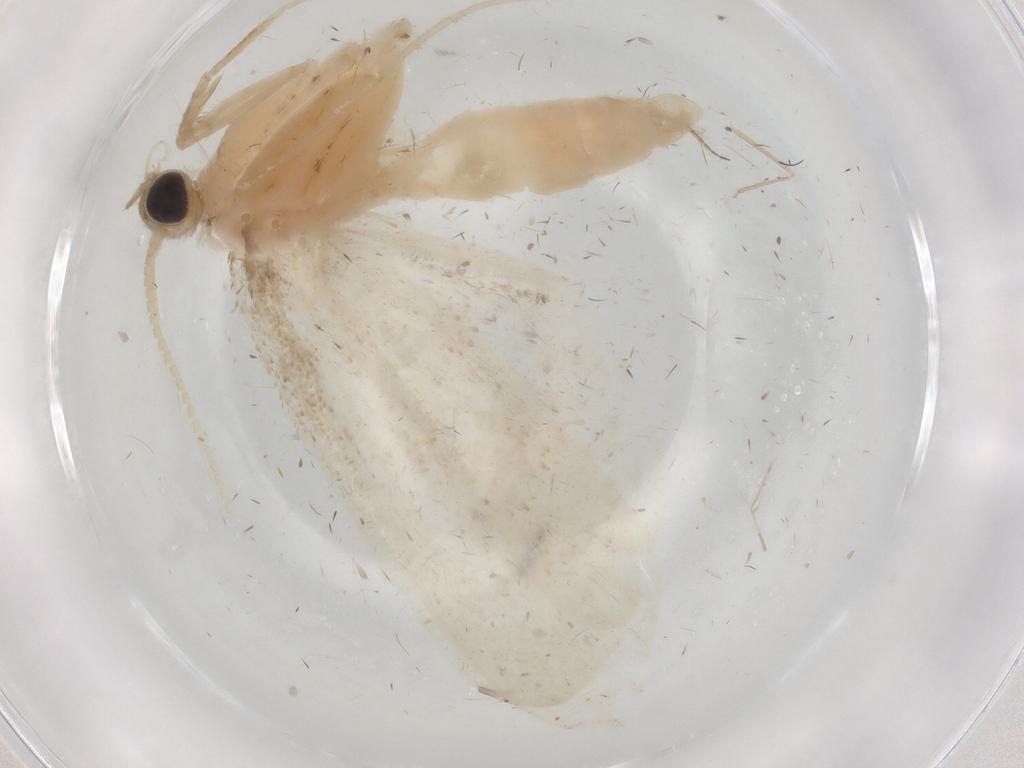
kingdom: Animalia
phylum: Arthropoda
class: Insecta
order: Lepidoptera
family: Crambidae
